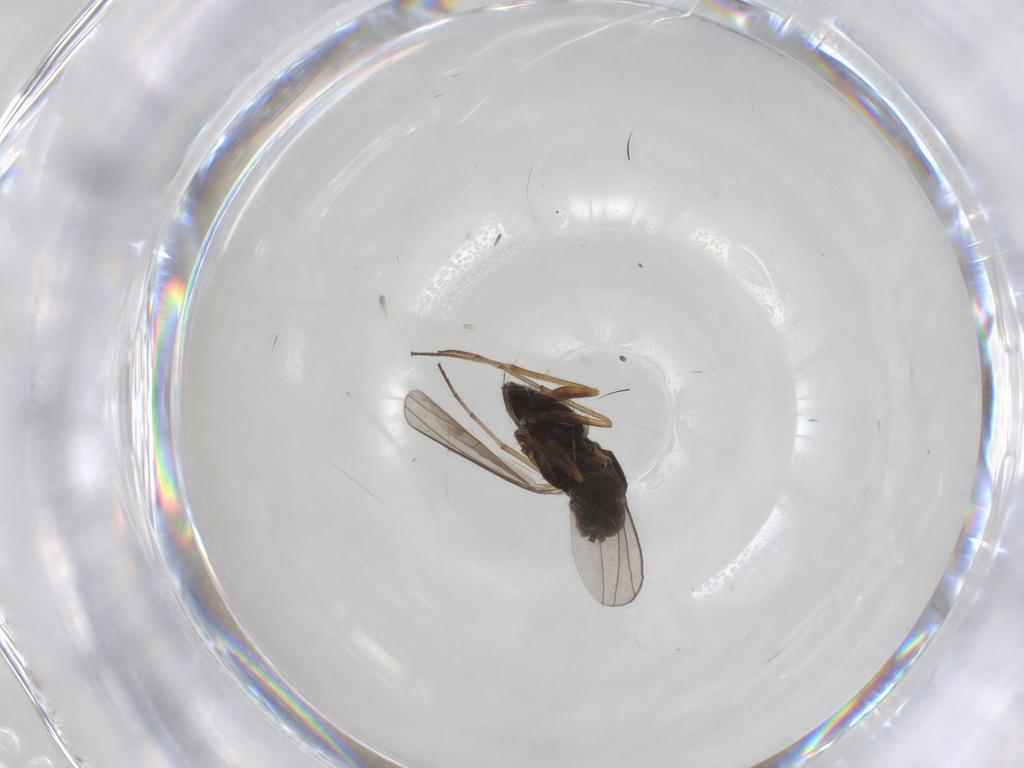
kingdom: Animalia
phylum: Arthropoda
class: Insecta
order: Diptera
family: Dolichopodidae
